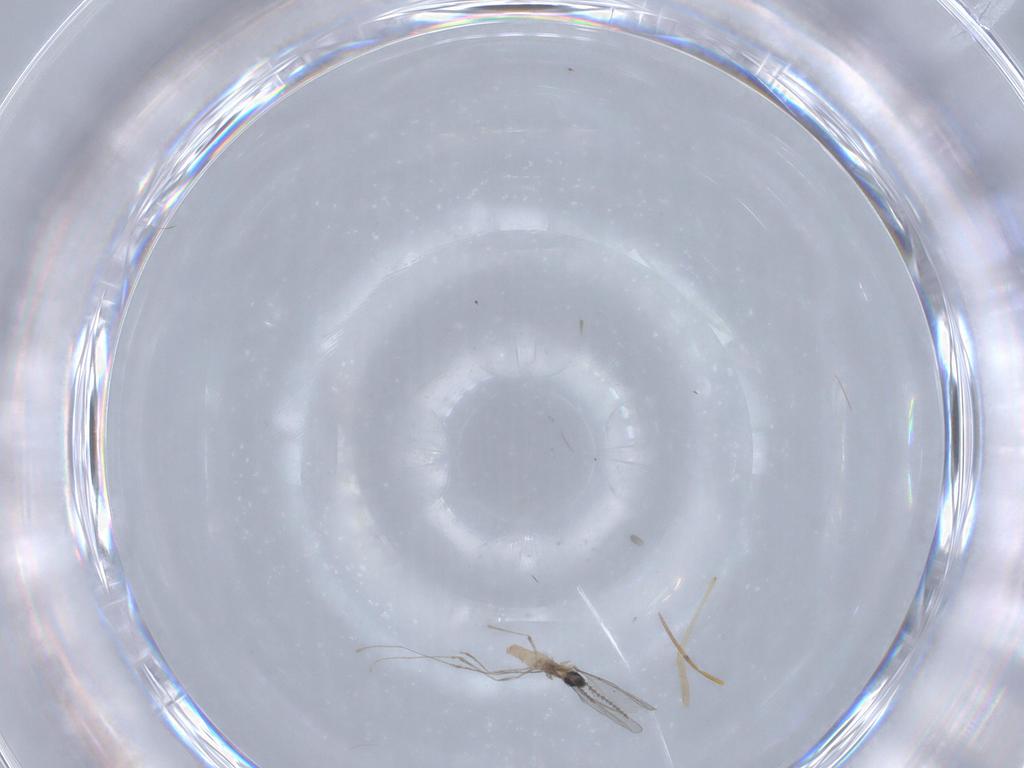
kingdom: Animalia
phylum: Arthropoda
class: Insecta
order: Diptera
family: Cecidomyiidae
